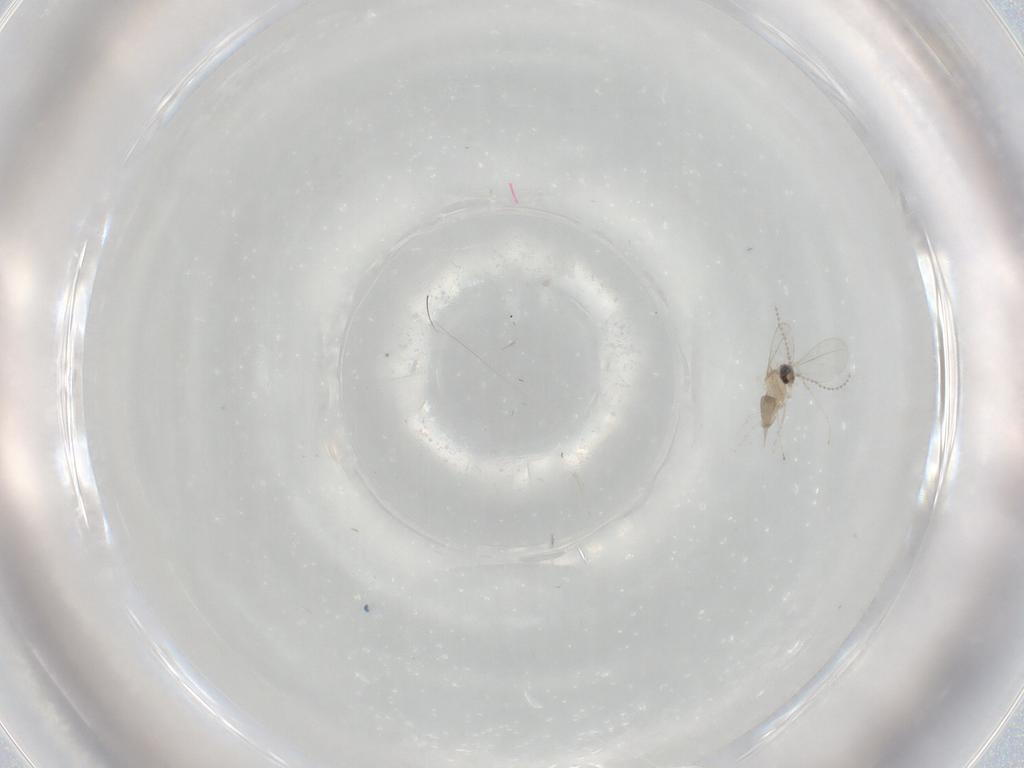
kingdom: Animalia
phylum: Arthropoda
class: Insecta
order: Diptera
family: Cecidomyiidae
